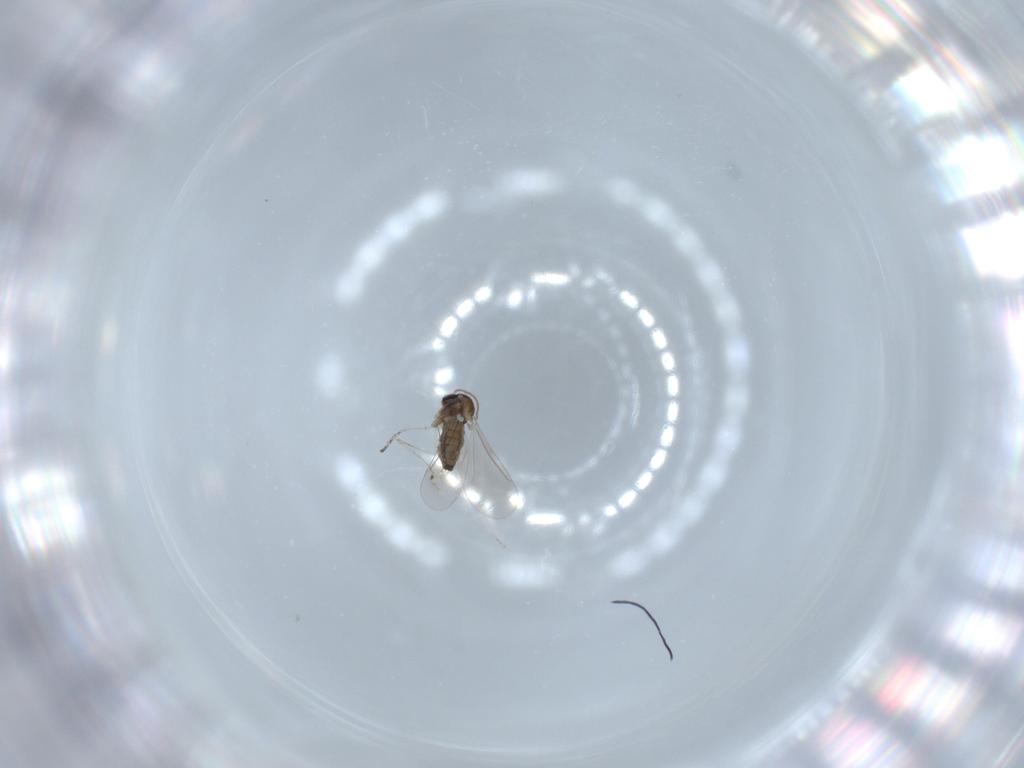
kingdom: Animalia
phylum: Arthropoda
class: Insecta
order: Diptera
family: Cecidomyiidae
